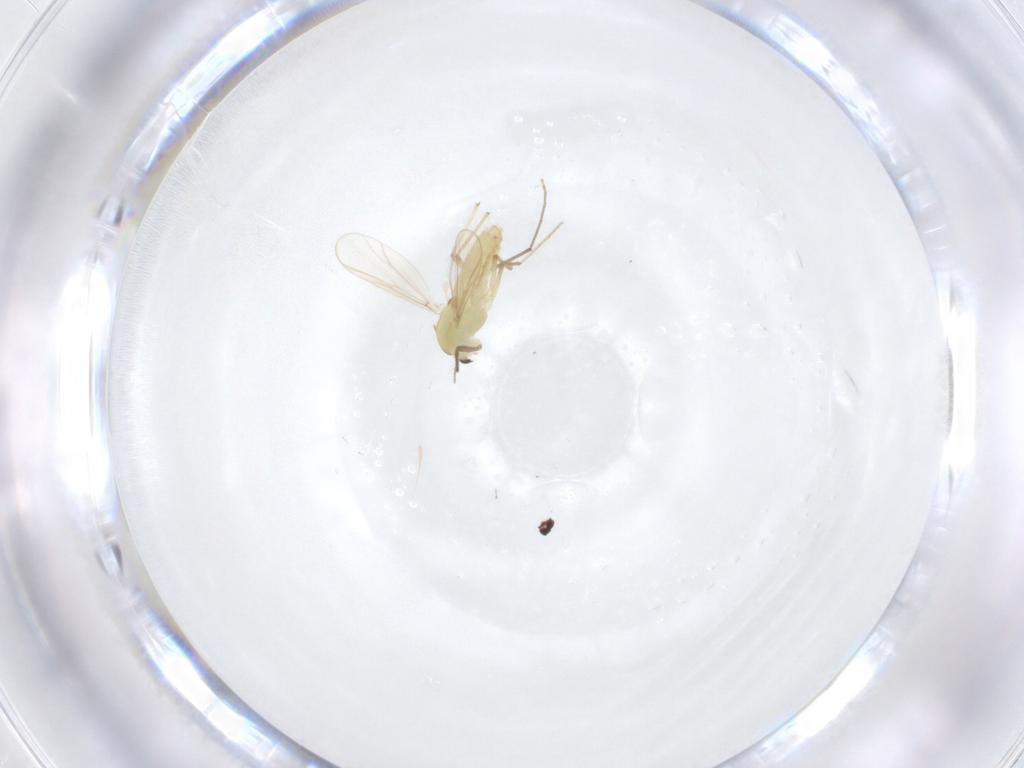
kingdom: Animalia
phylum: Arthropoda
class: Insecta
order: Diptera
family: Chironomidae
